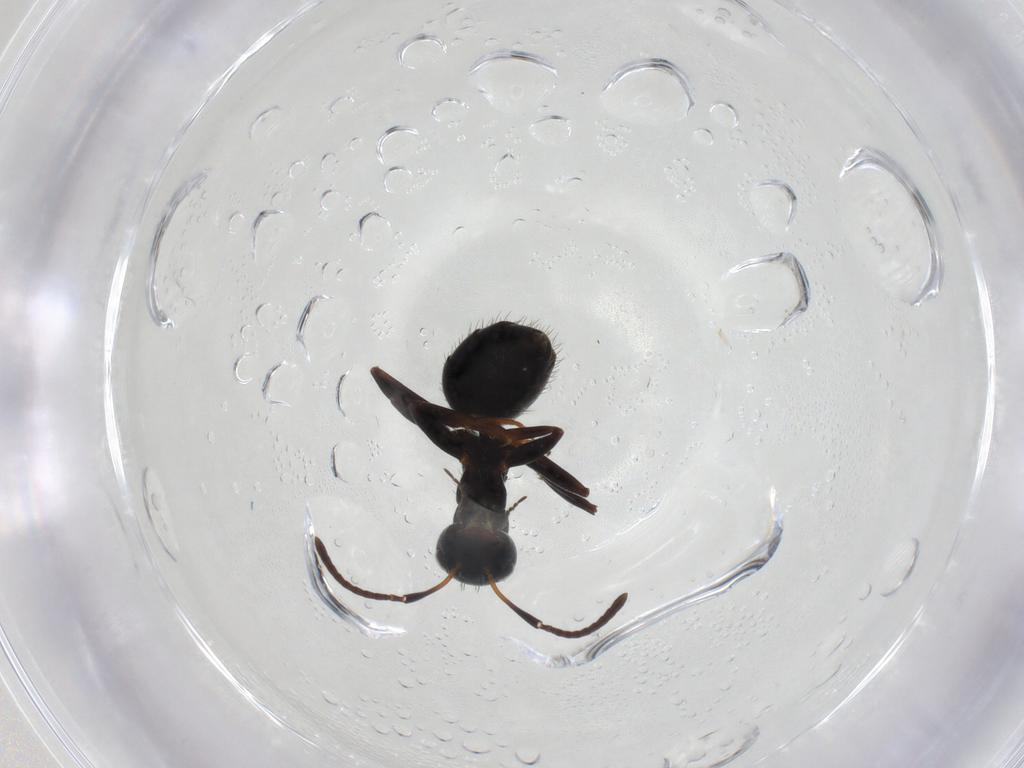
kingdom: Animalia
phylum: Arthropoda
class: Insecta
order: Hymenoptera
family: Formicidae
